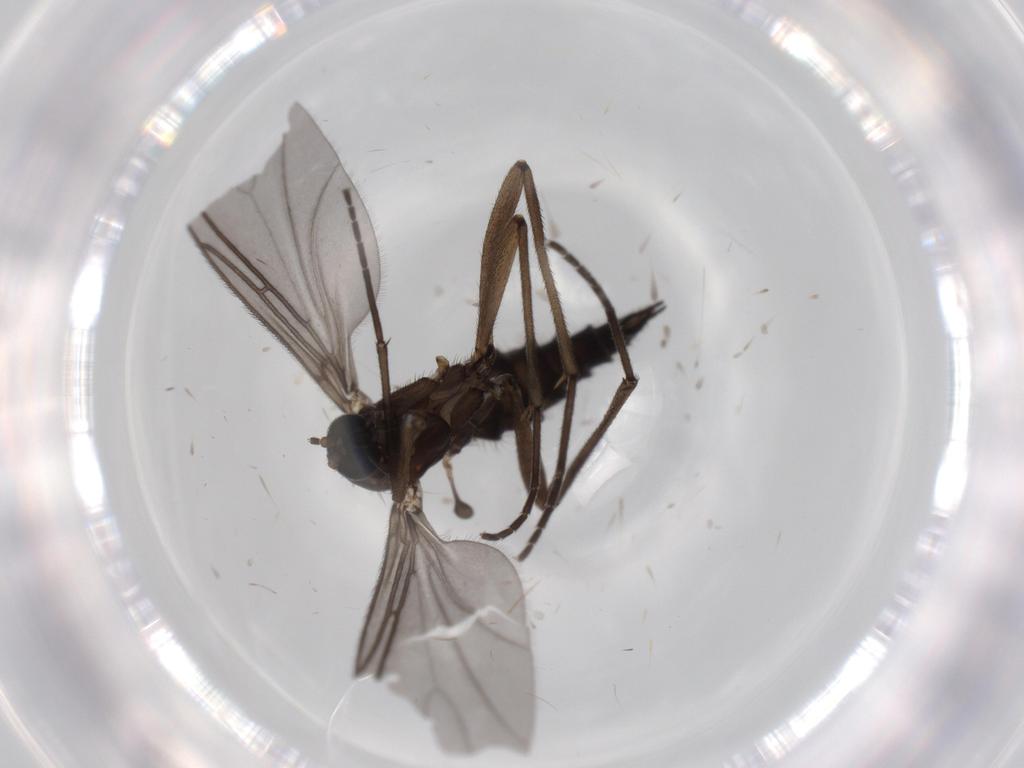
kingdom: Animalia
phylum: Arthropoda
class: Insecta
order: Diptera
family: Sciaridae
